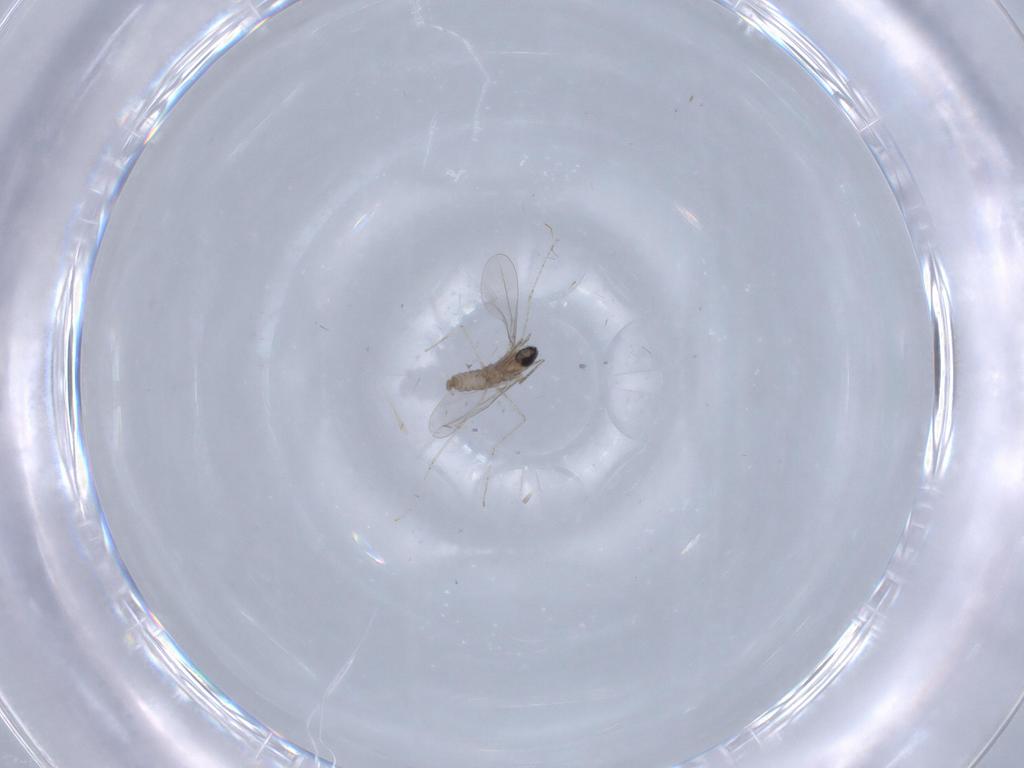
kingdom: Animalia
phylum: Arthropoda
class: Insecta
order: Diptera
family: Cecidomyiidae
